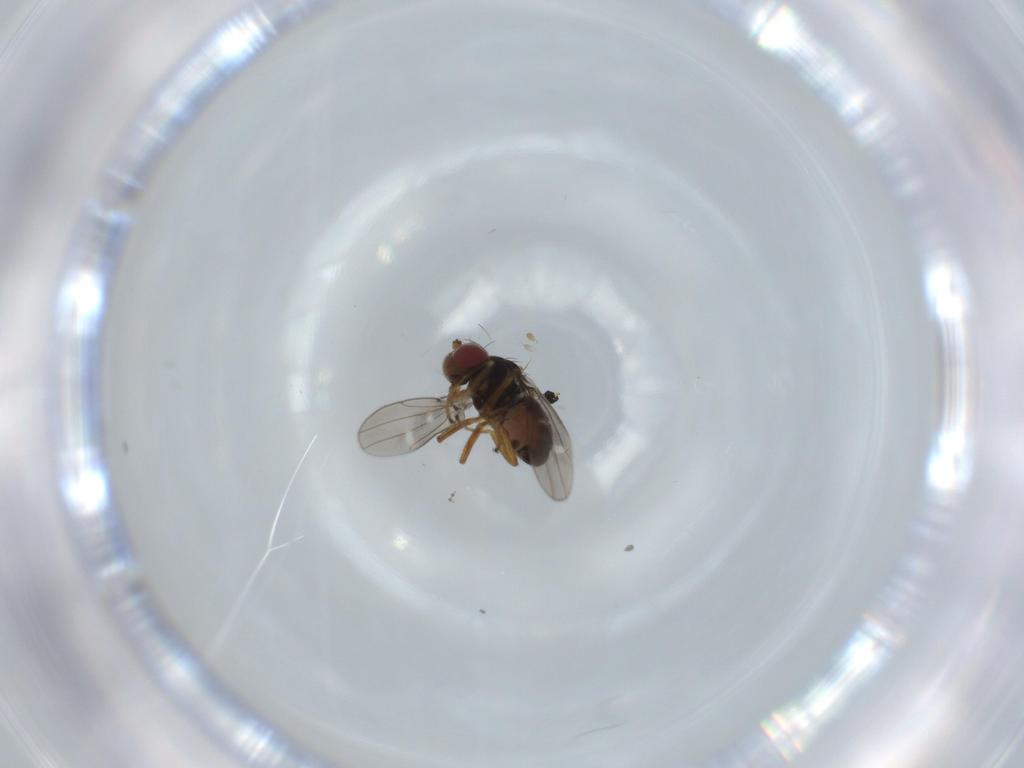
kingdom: Animalia
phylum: Arthropoda
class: Insecta
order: Diptera
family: Ephydridae
